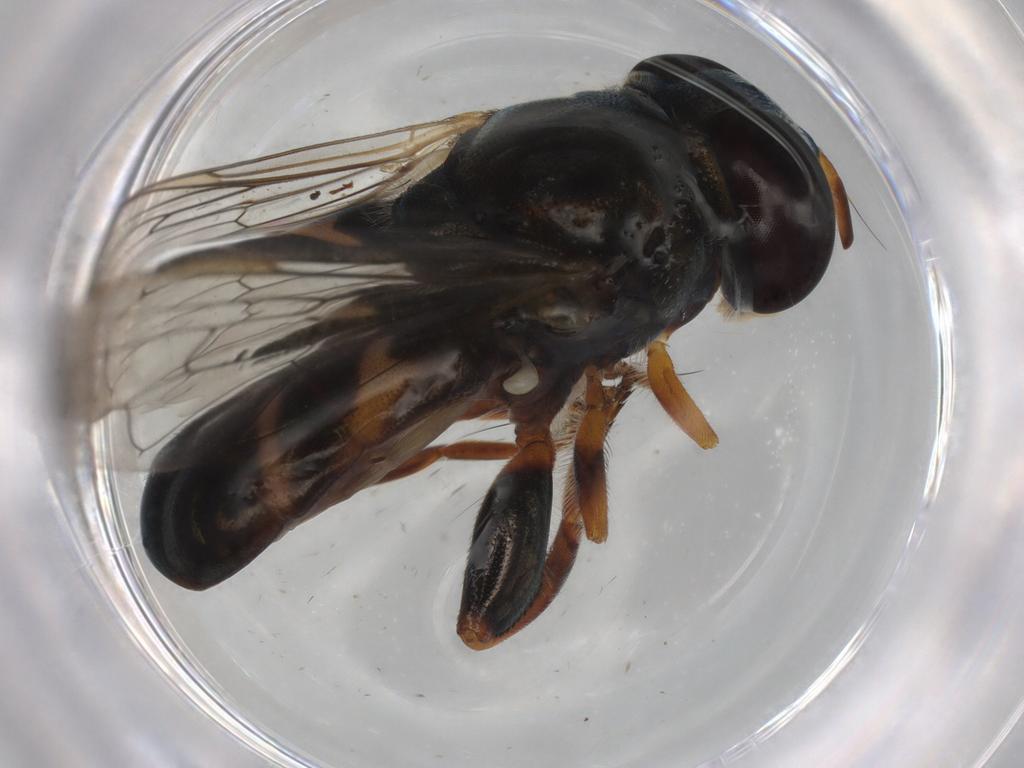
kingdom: Animalia
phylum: Arthropoda
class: Insecta
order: Diptera
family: Syrphidae
